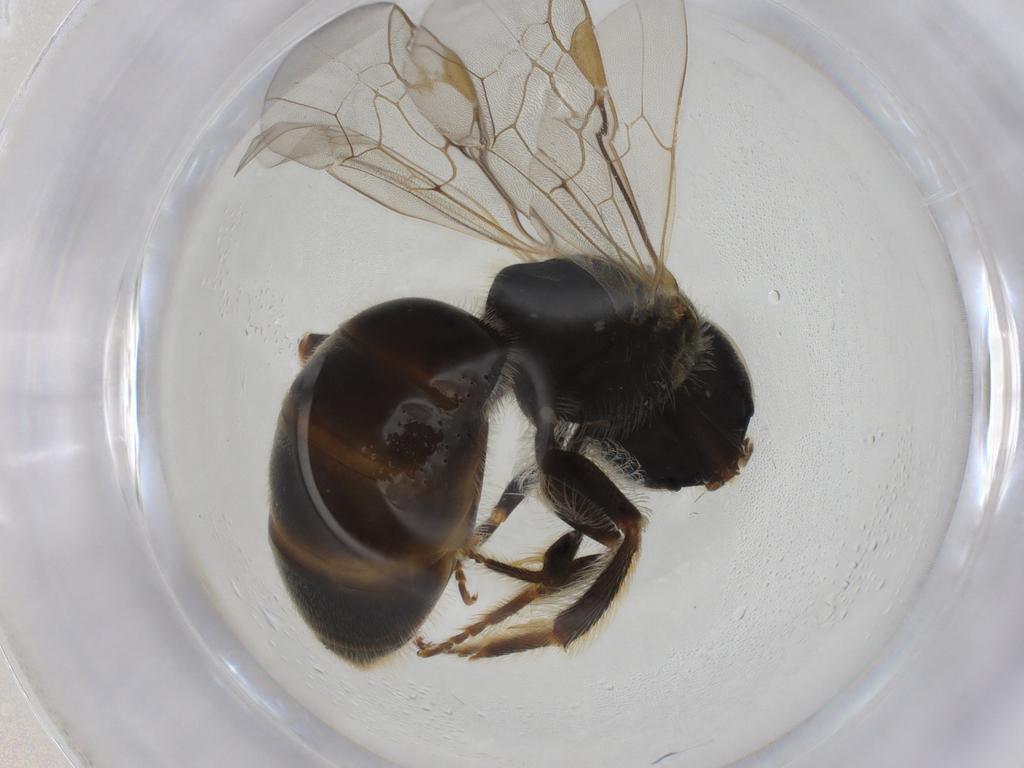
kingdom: Animalia
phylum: Arthropoda
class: Insecta
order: Hymenoptera
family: Halictidae
